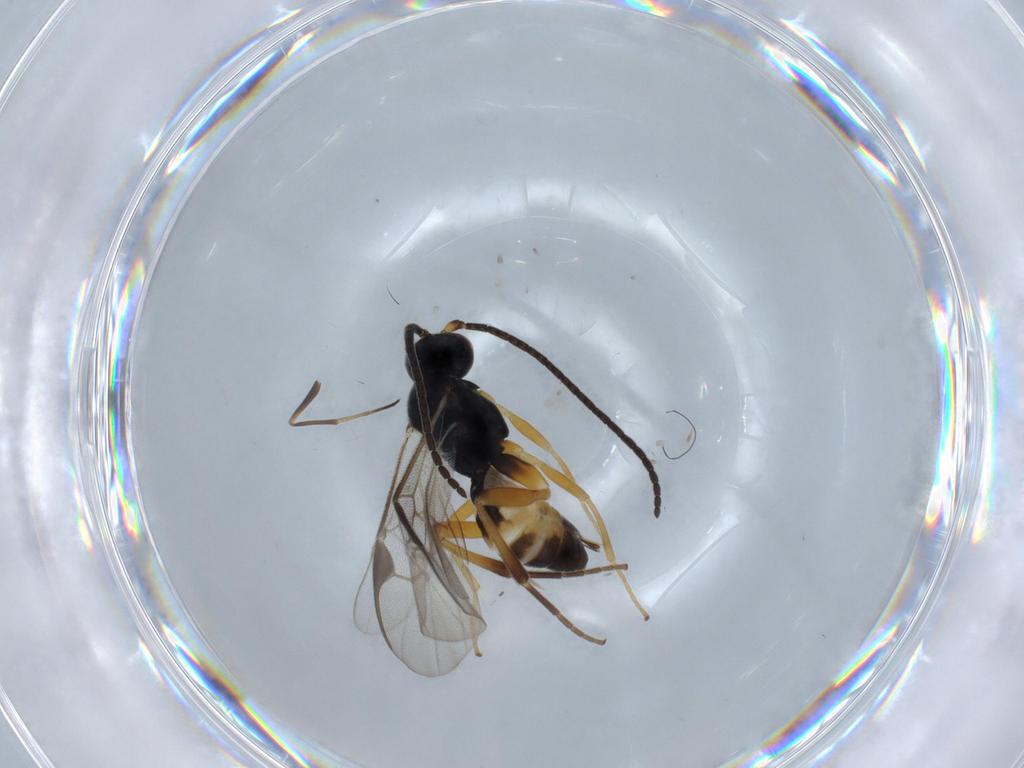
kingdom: Animalia
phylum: Arthropoda
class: Insecta
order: Hymenoptera
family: Braconidae
